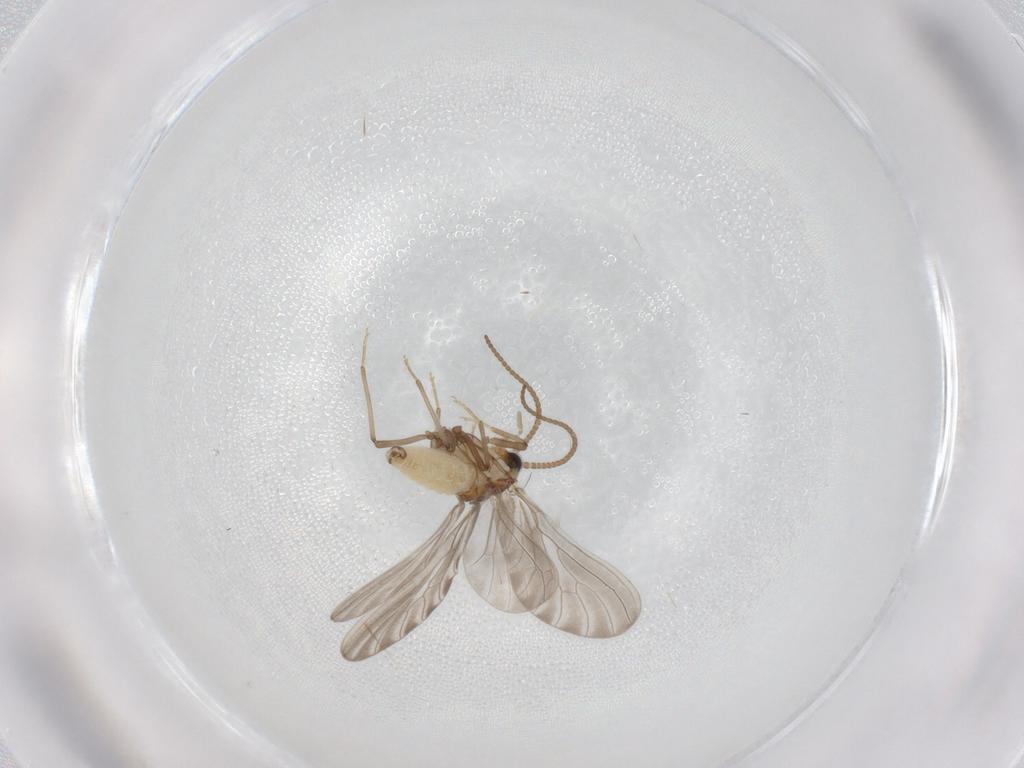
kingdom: Animalia
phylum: Arthropoda
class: Insecta
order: Neuroptera
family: Coniopterygidae
